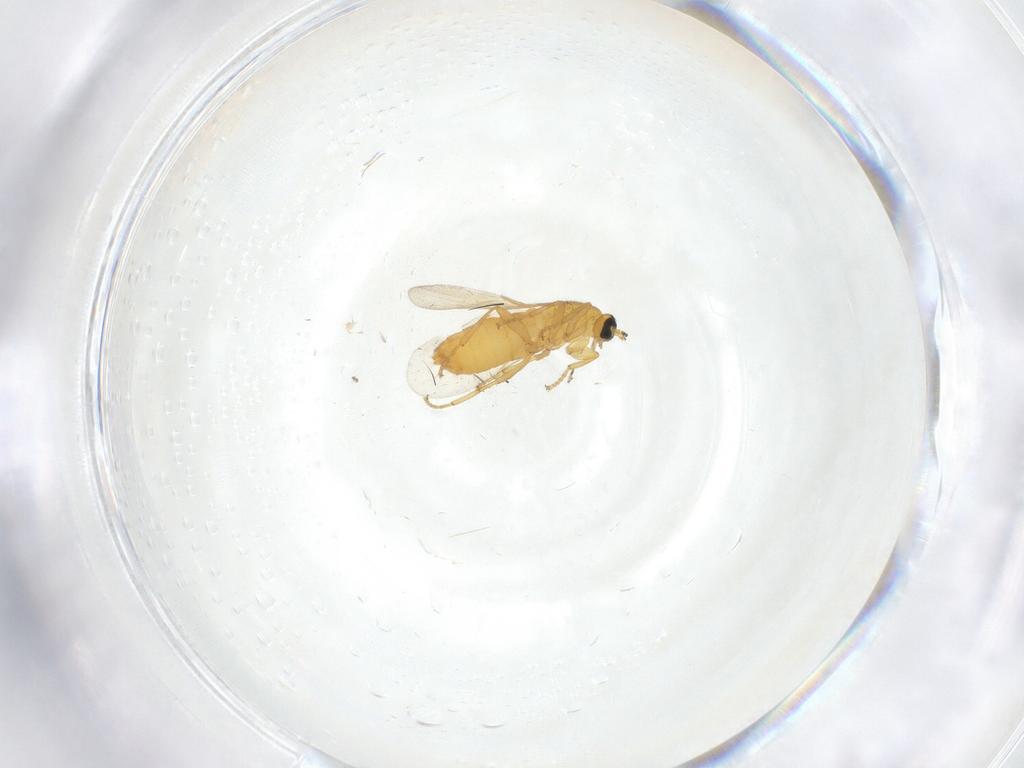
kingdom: Animalia
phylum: Arthropoda
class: Insecta
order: Diptera
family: Scatopsidae
